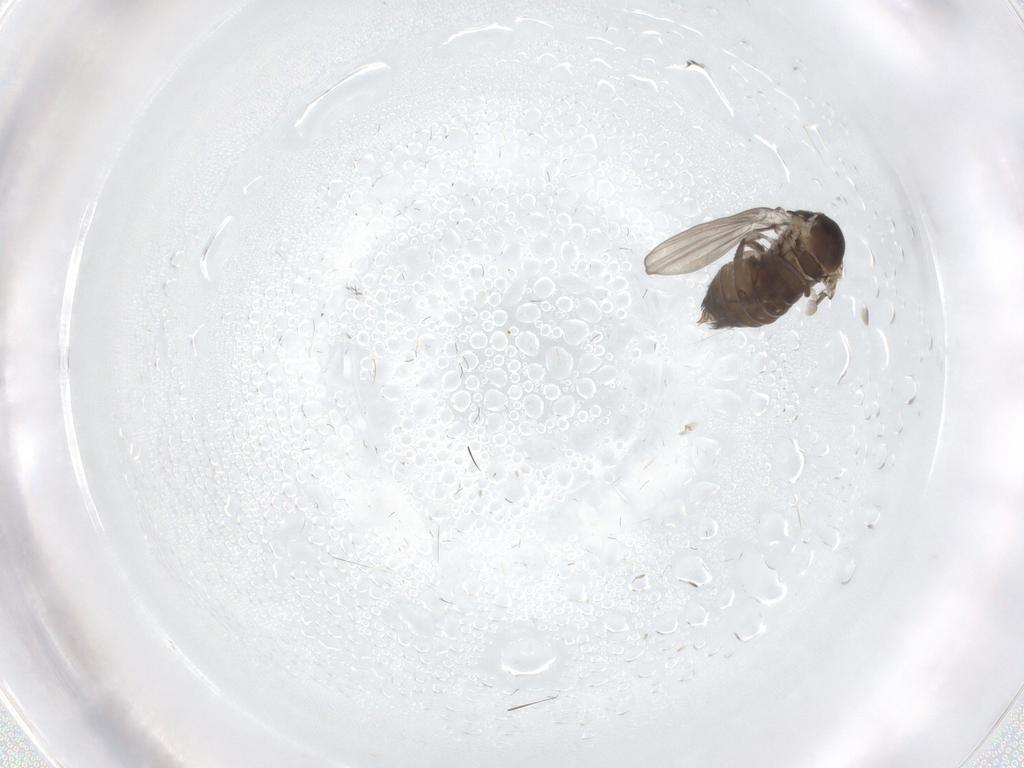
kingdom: Animalia
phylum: Arthropoda
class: Insecta
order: Diptera
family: Psychodidae
